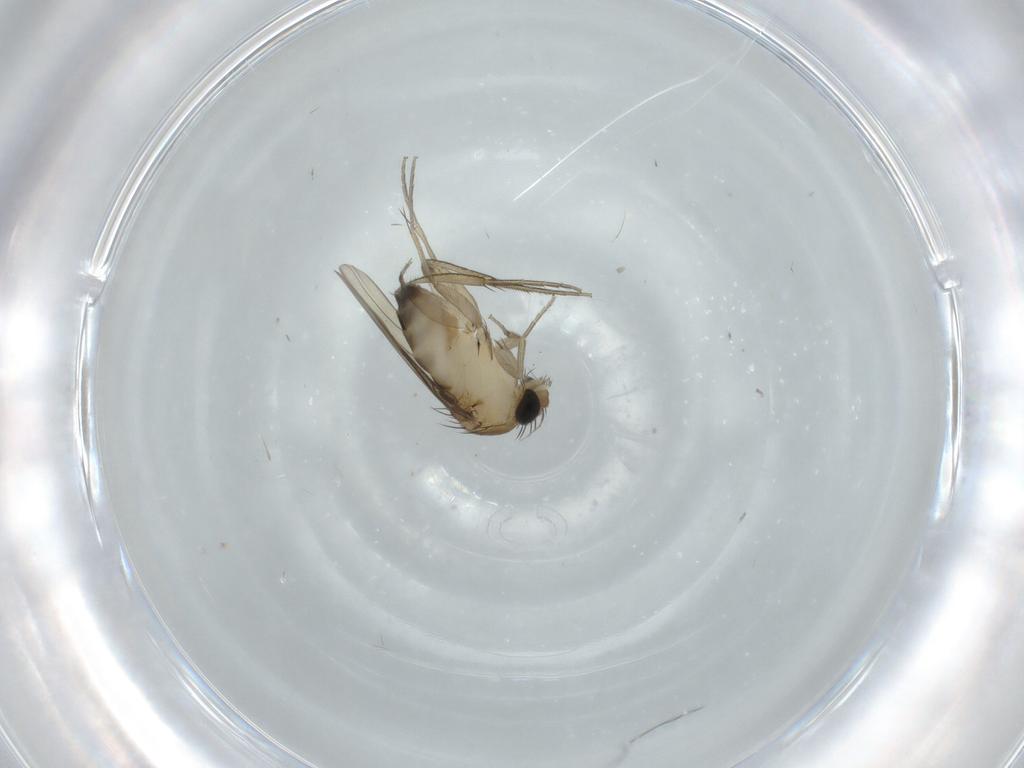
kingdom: Animalia
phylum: Arthropoda
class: Insecta
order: Diptera
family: Phoridae
